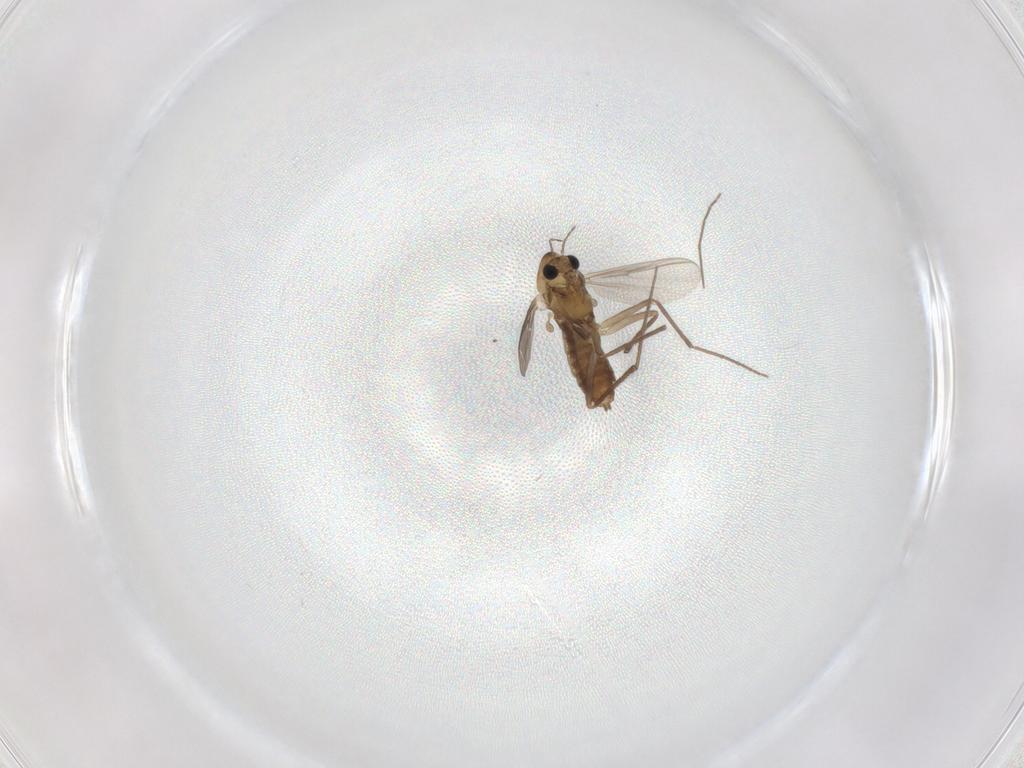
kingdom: Animalia
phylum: Arthropoda
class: Insecta
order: Diptera
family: Chironomidae
